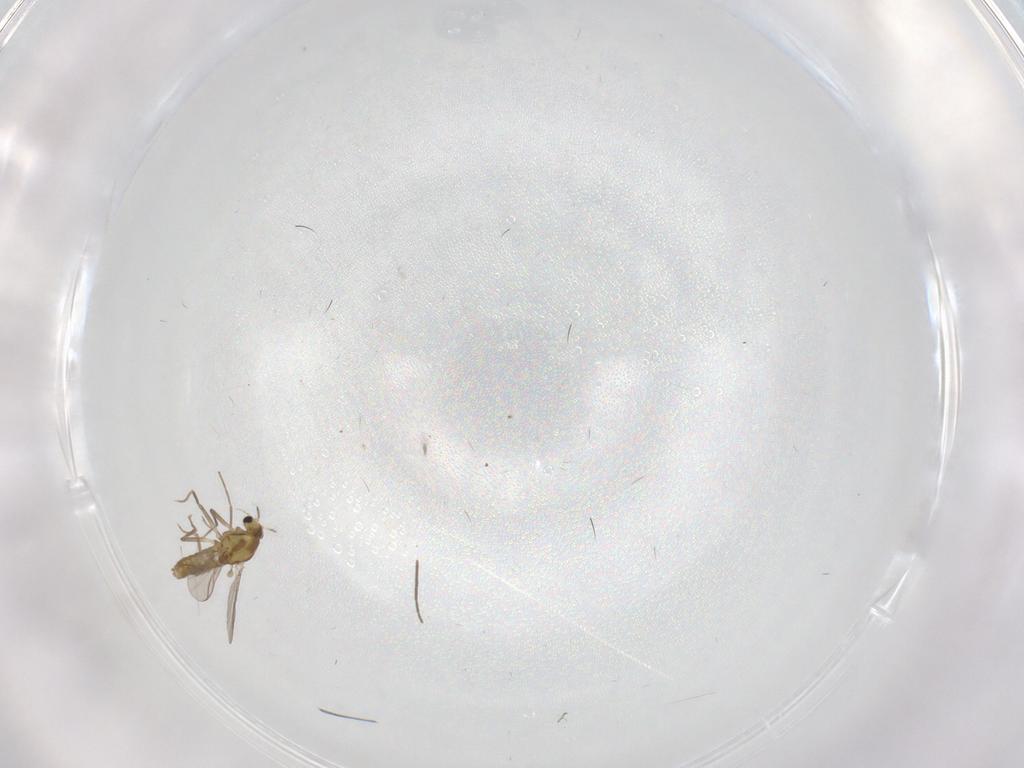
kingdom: Animalia
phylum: Arthropoda
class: Insecta
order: Diptera
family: Chironomidae
